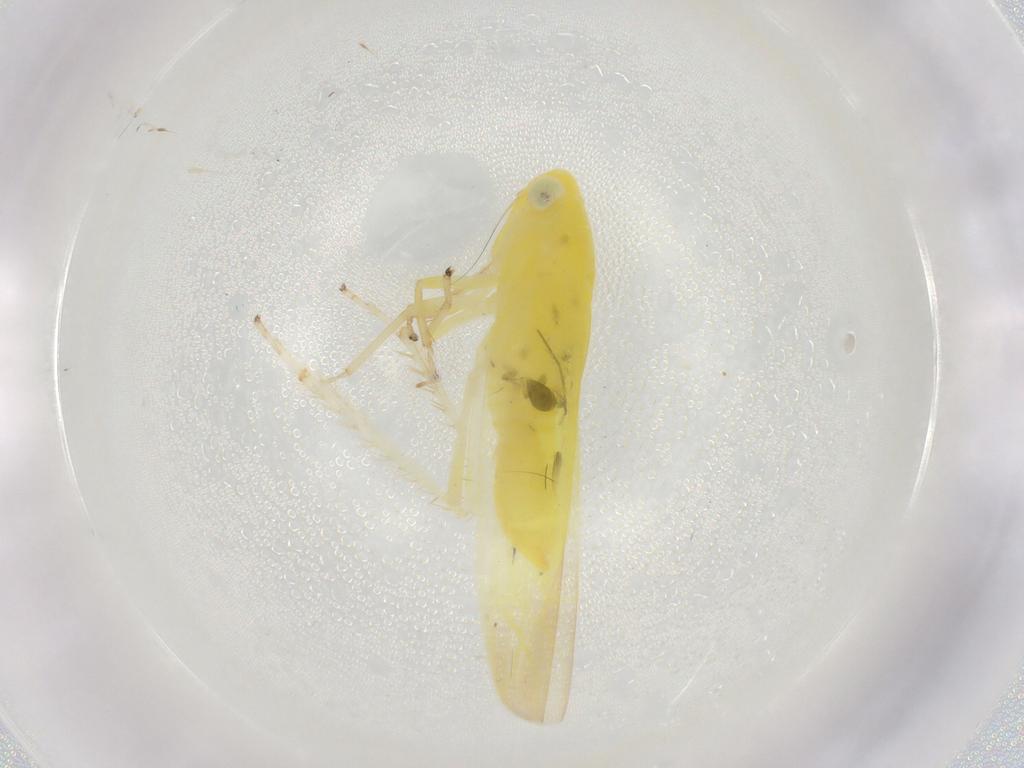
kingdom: Animalia
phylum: Arthropoda
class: Insecta
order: Hemiptera
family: Cicadellidae
